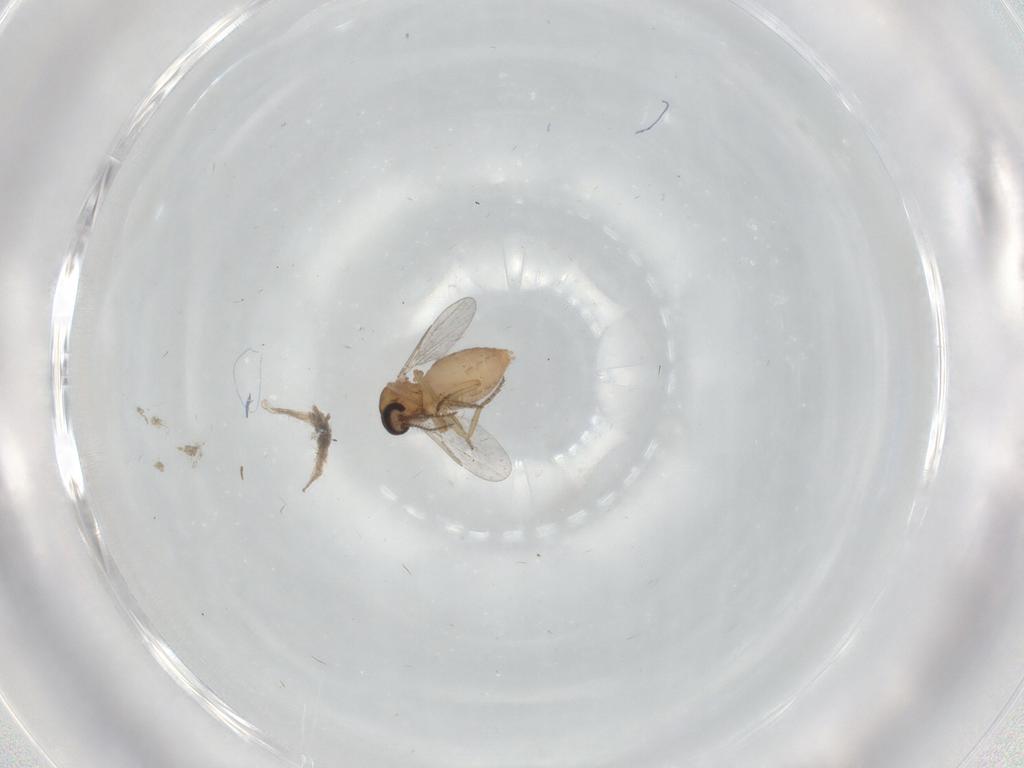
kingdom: Animalia
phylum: Arthropoda
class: Insecta
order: Diptera
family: Ceratopogonidae
